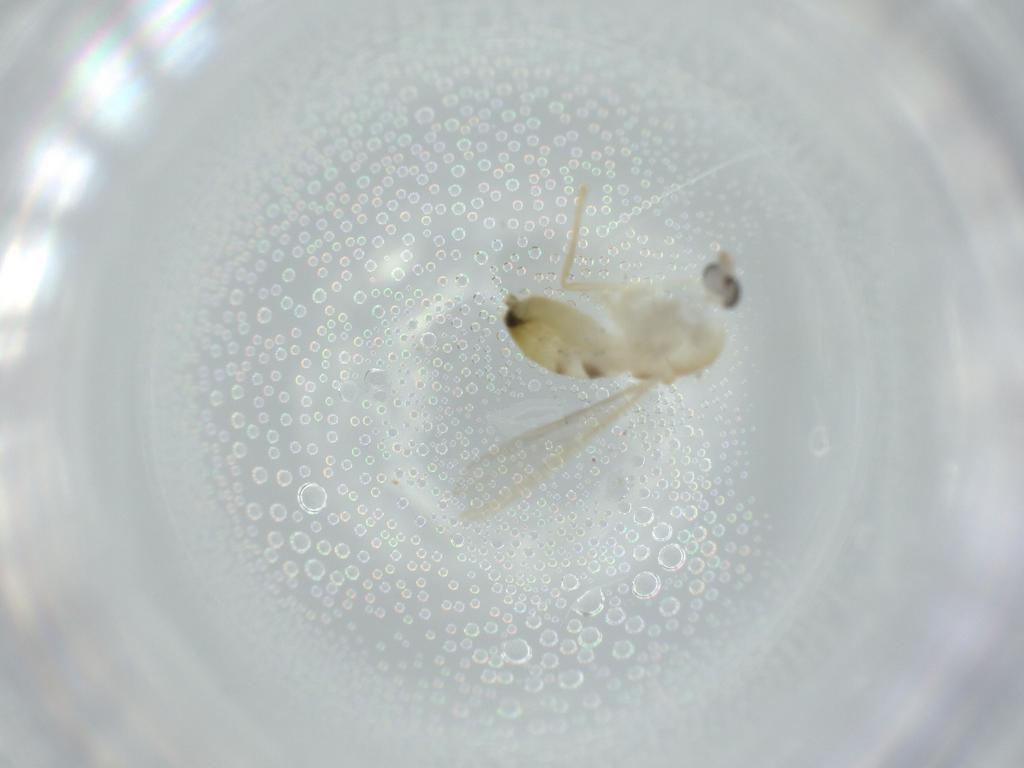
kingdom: Animalia
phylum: Arthropoda
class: Insecta
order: Diptera
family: Chironomidae
